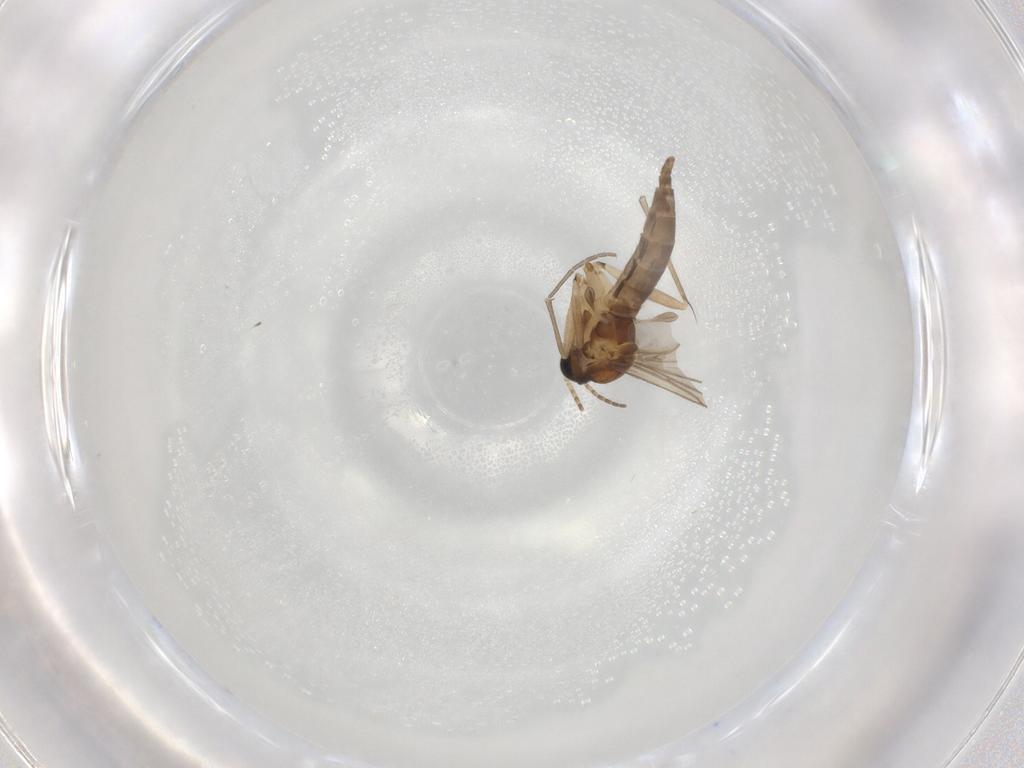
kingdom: Animalia
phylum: Arthropoda
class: Insecta
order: Diptera
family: Sciaridae
